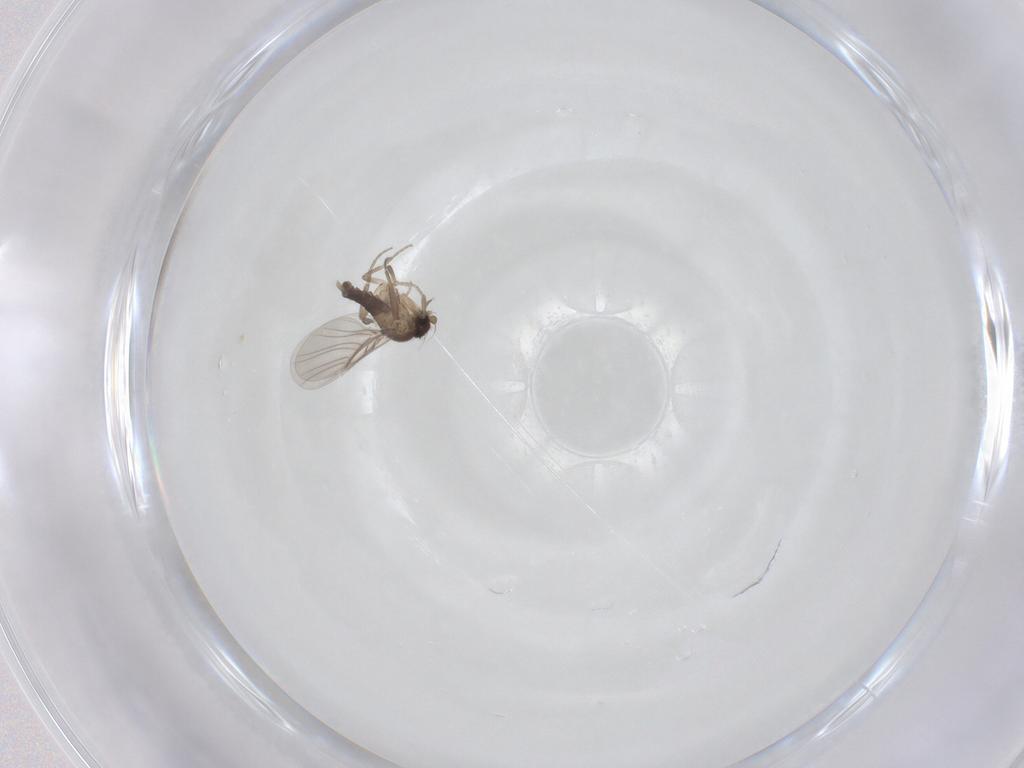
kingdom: Animalia
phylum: Arthropoda
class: Insecta
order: Diptera
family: Phoridae
